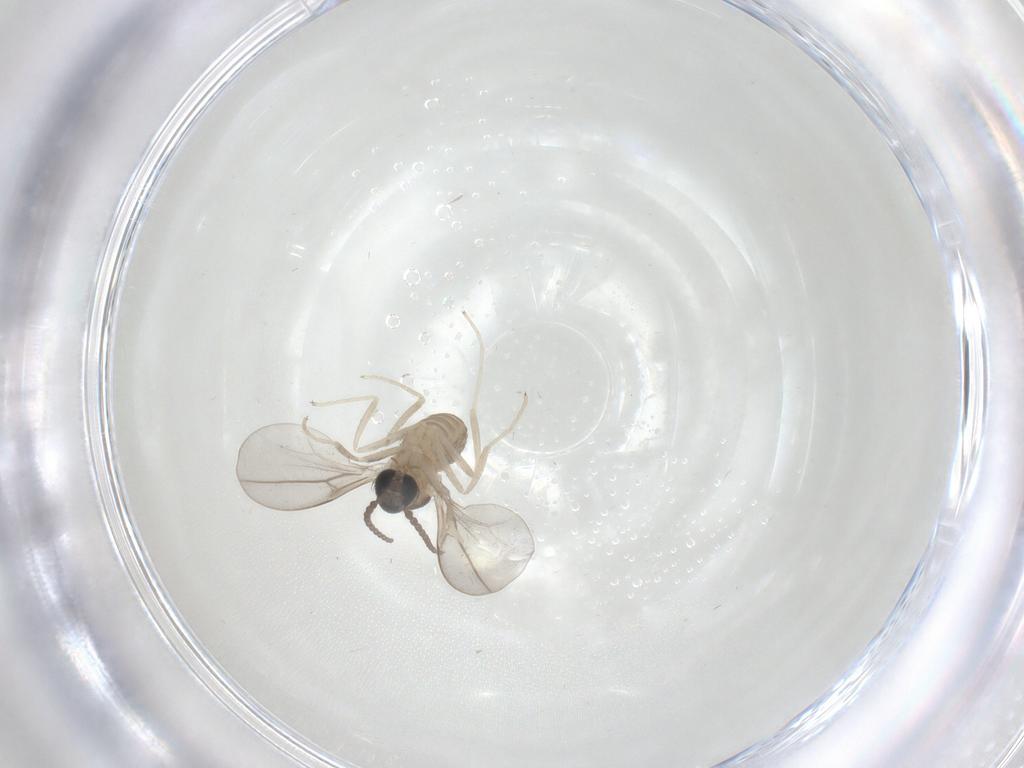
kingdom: Animalia
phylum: Arthropoda
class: Insecta
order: Diptera
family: Cecidomyiidae
